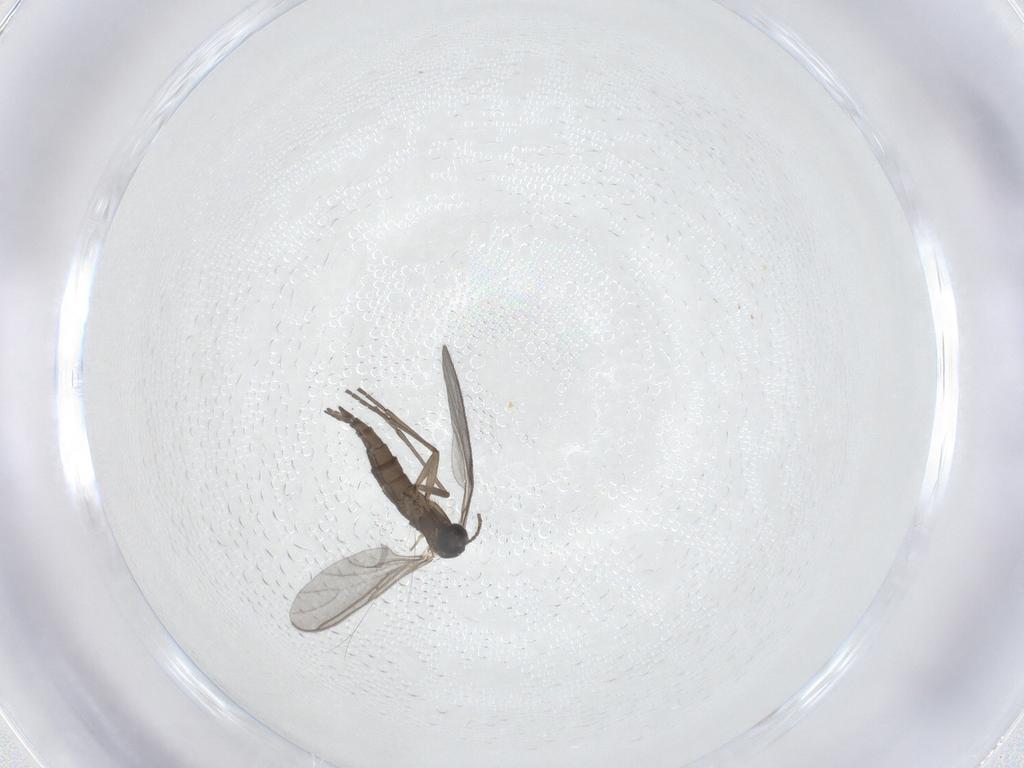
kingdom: Animalia
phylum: Arthropoda
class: Insecta
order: Diptera
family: Sciaridae
